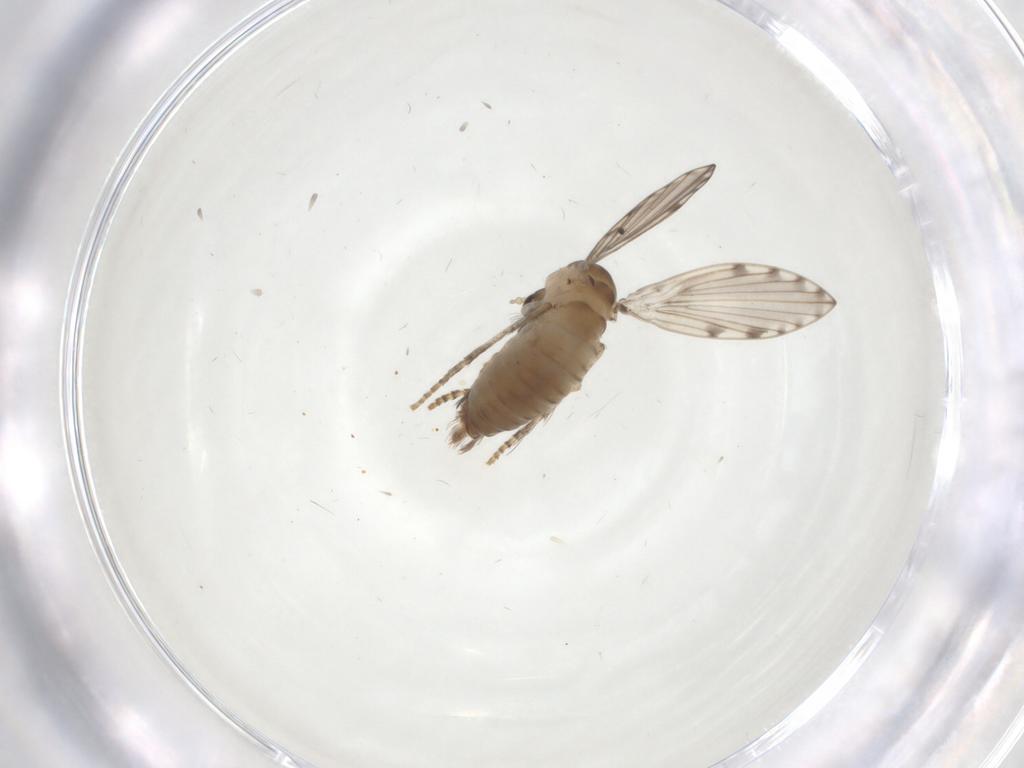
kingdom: Animalia
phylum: Arthropoda
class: Insecta
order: Diptera
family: Psychodidae
